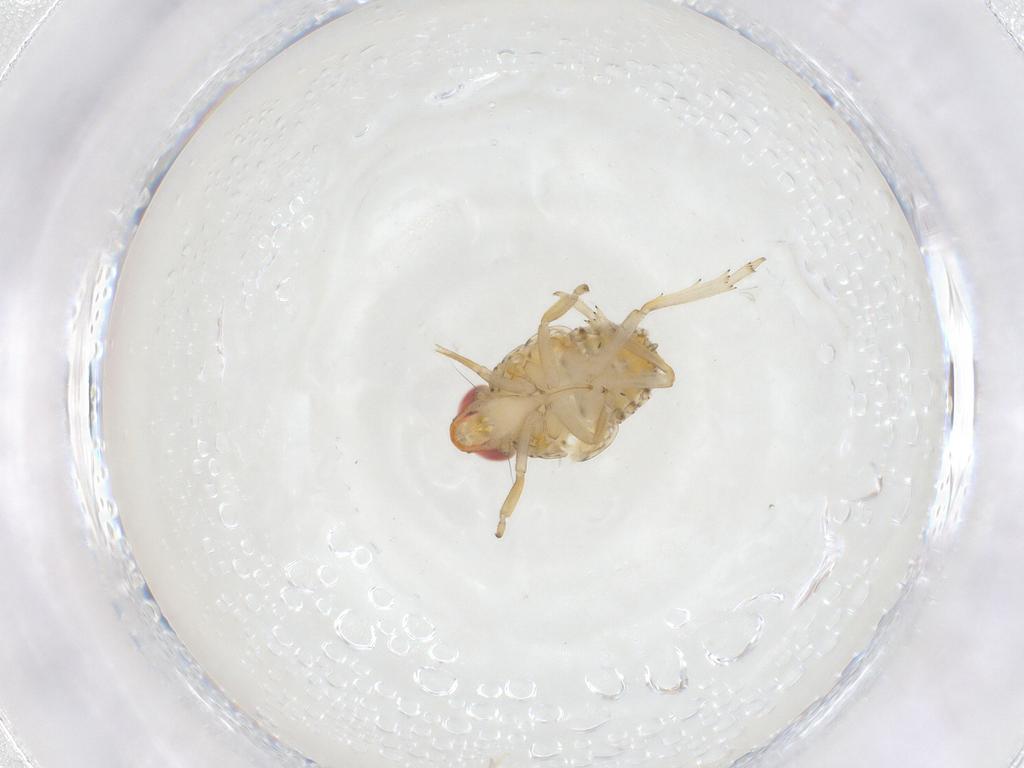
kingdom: Animalia
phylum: Arthropoda
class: Insecta
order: Hemiptera
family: Fulgoroidea_incertae_sedis
